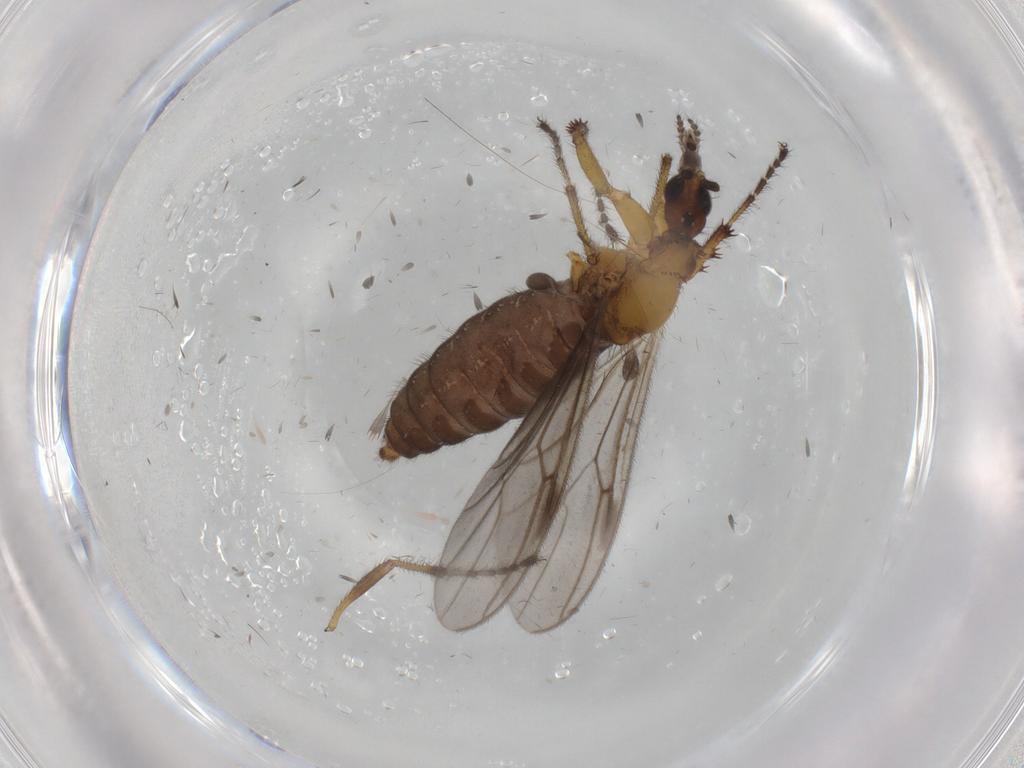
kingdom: Animalia
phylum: Arthropoda
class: Insecta
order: Diptera
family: Bibionidae
